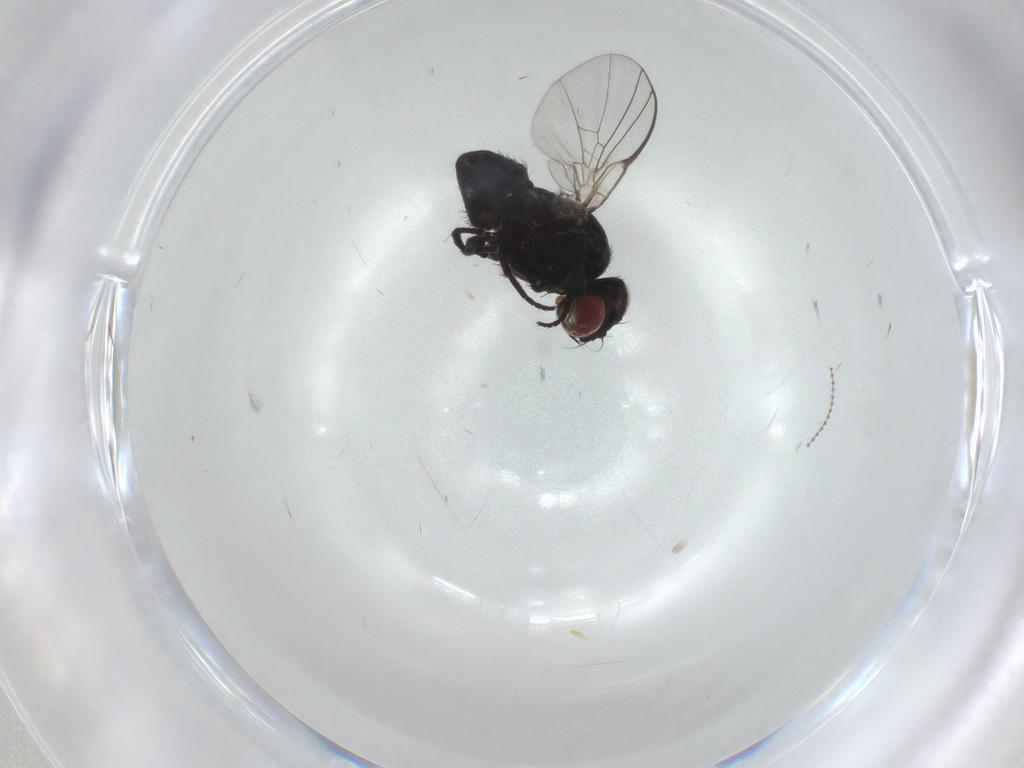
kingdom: Animalia
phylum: Arthropoda
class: Insecta
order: Diptera
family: Agromyzidae
